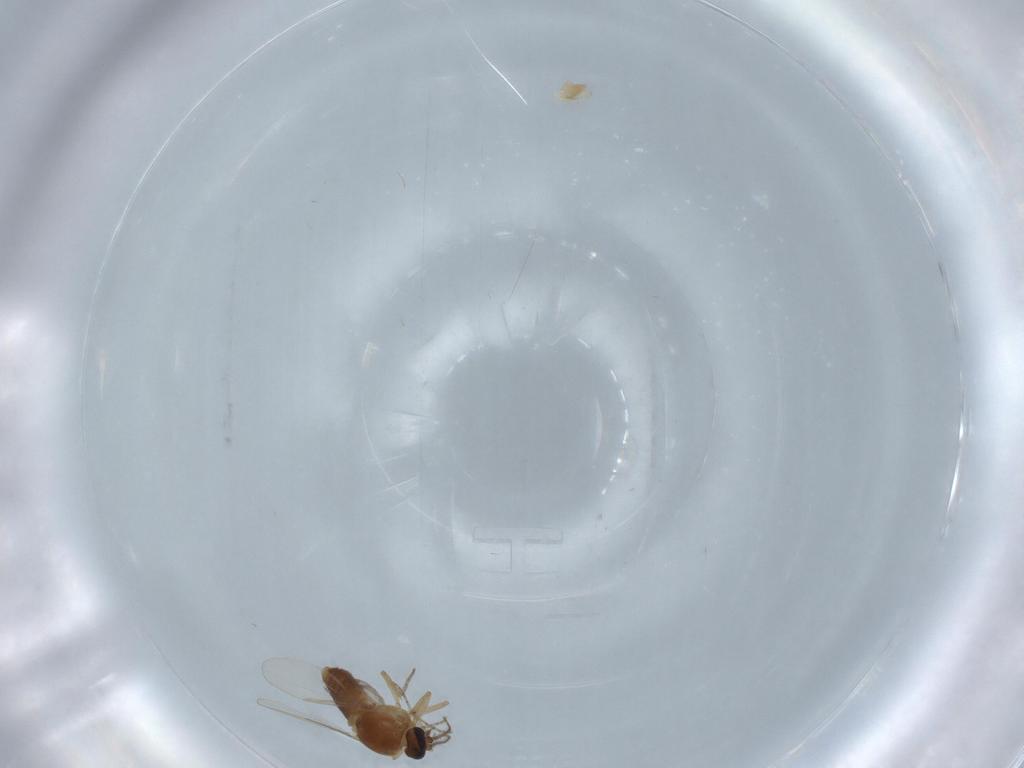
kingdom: Animalia
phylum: Arthropoda
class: Insecta
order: Diptera
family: Ceratopogonidae
